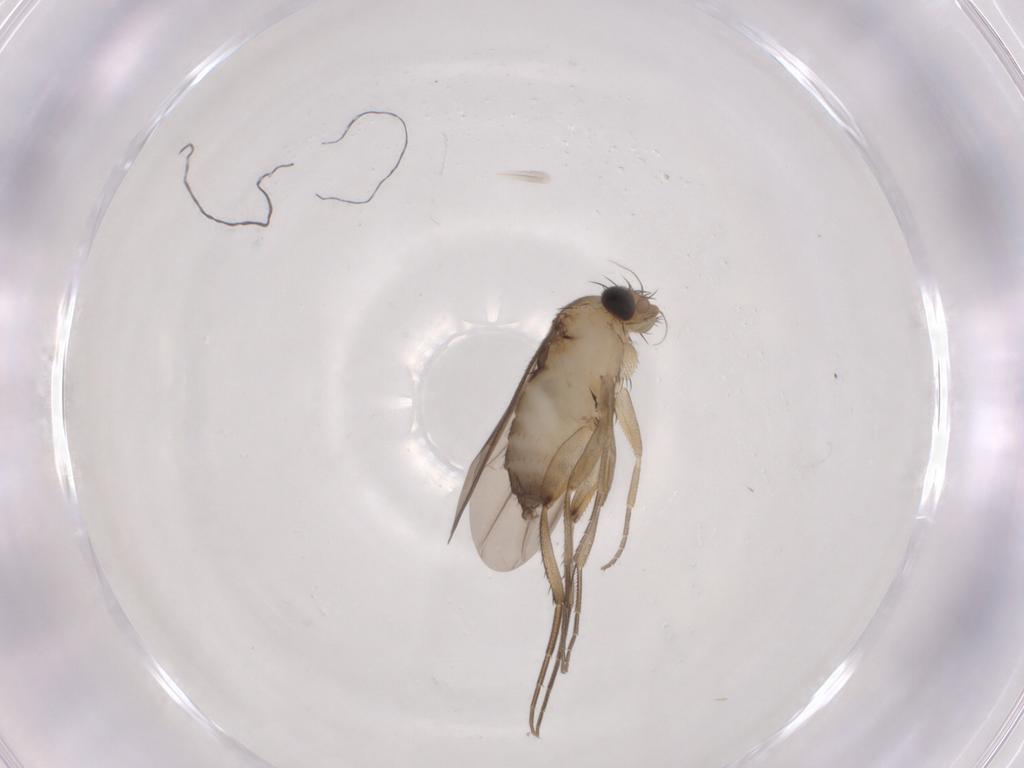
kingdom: Animalia
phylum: Arthropoda
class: Insecta
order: Diptera
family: Phoridae
